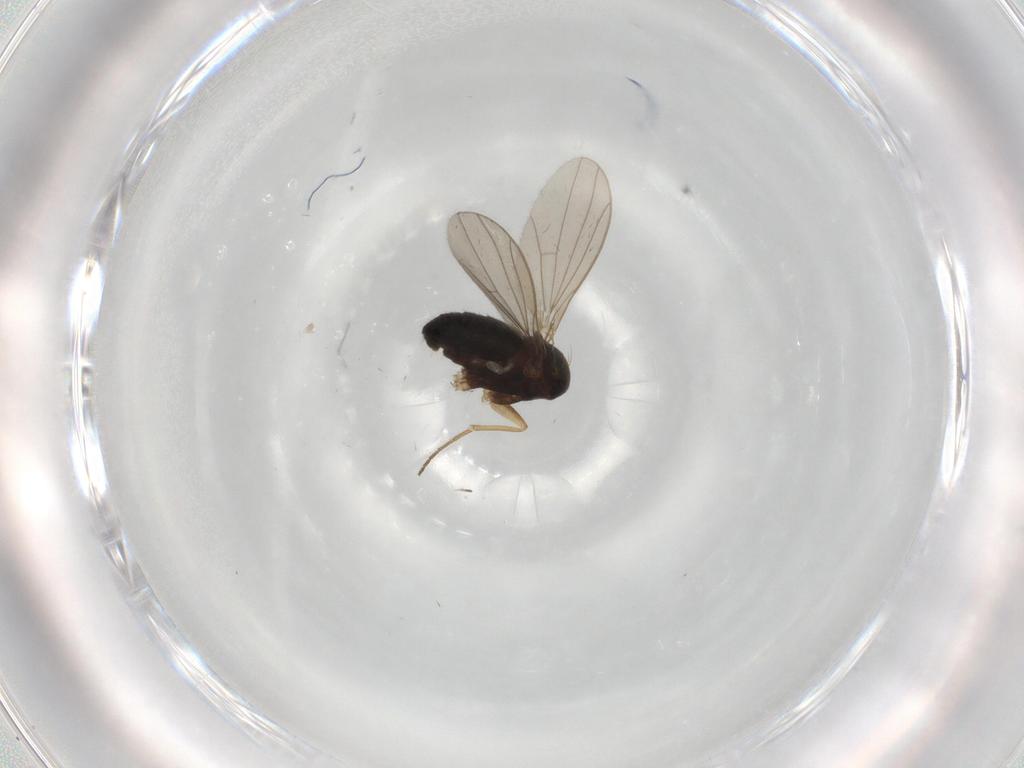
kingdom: Animalia
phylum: Arthropoda
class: Insecta
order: Diptera
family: Dolichopodidae
